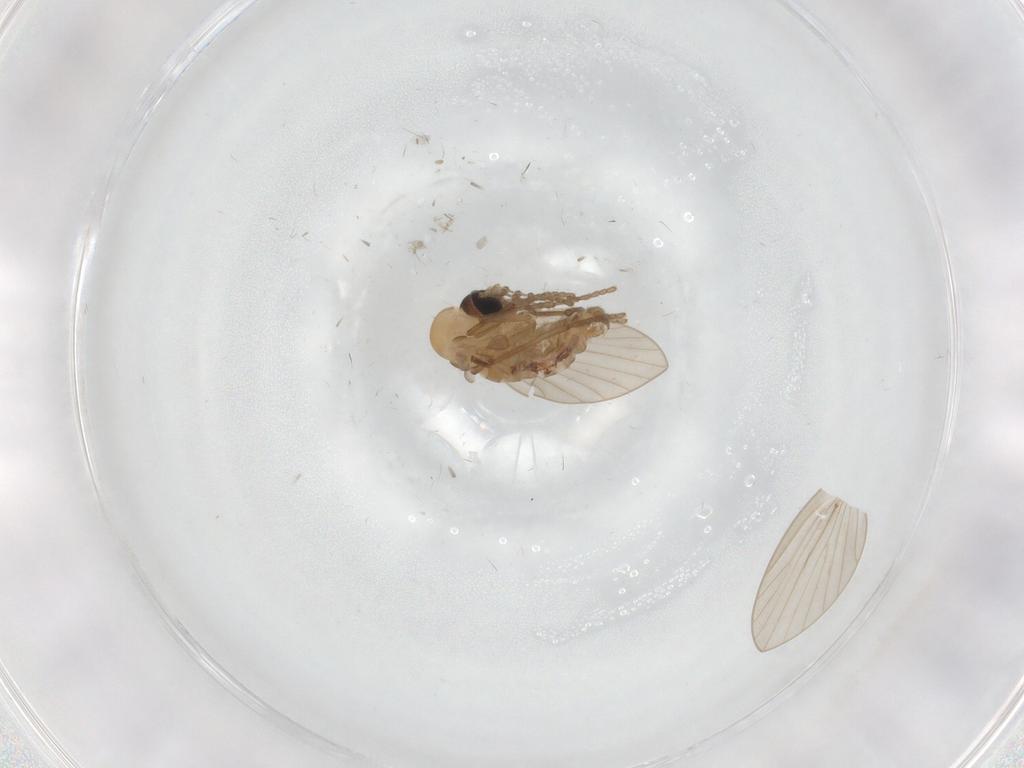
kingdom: Animalia
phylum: Arthropoda
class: Insecta
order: Diptera
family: Psychodidae
